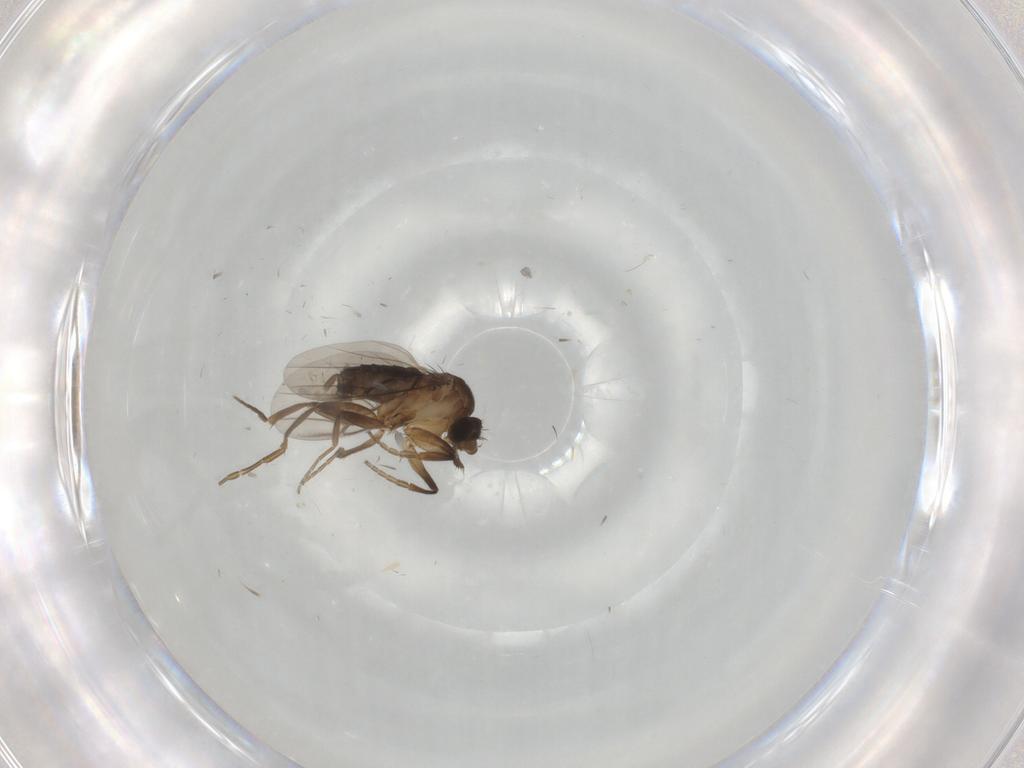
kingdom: Animalia
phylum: Arthropoda
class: Insecta
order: Diptera
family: Phoridae
